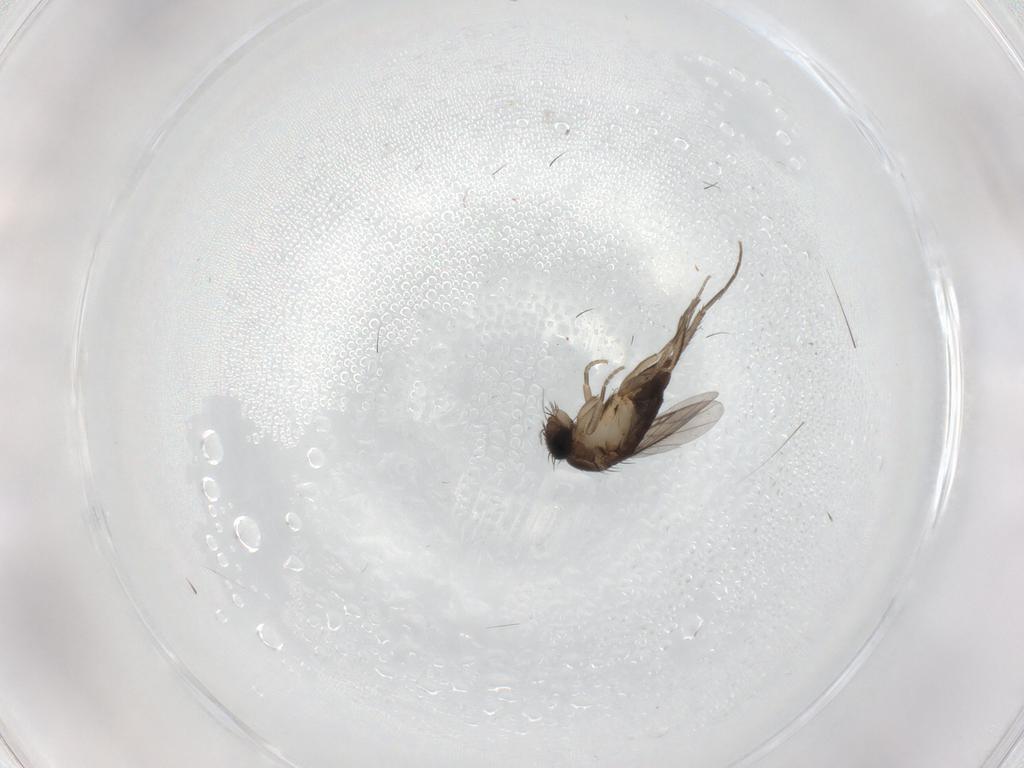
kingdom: Animalia
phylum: Arthropoda
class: Insecta
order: Diptera
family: Phoridae
